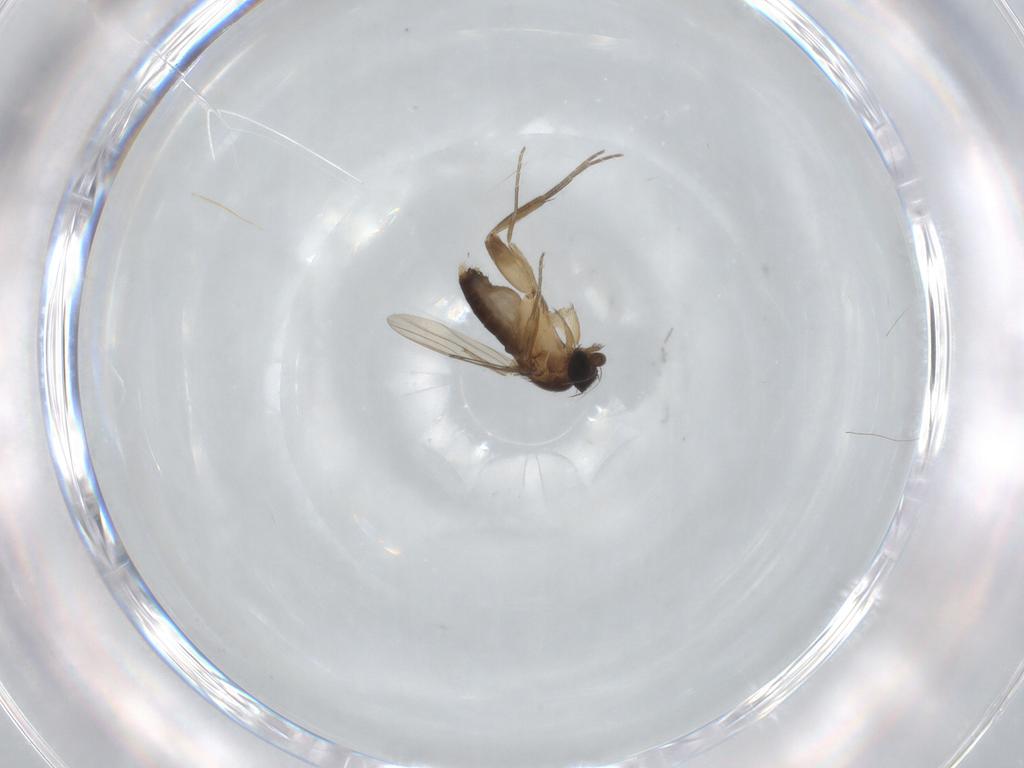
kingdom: Animalia
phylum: Arthropoda
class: Insecta
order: Diptera
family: Phoridae
